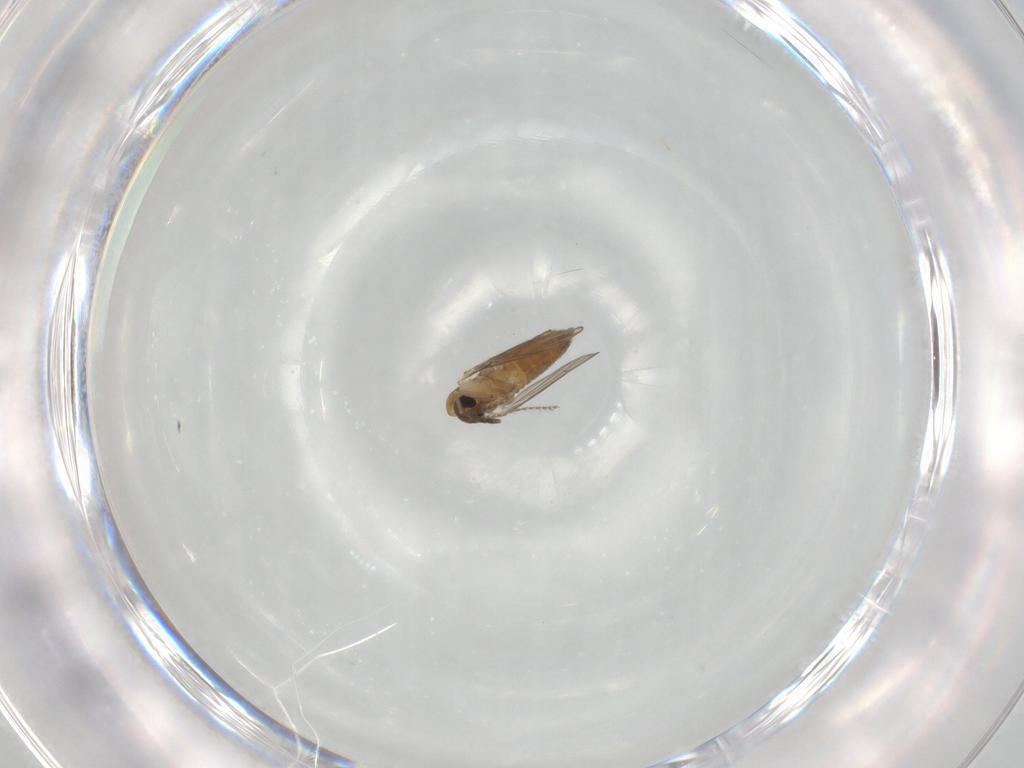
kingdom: Animalia
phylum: Arthropoda
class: Insecta
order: Diptera
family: Psychodidae
